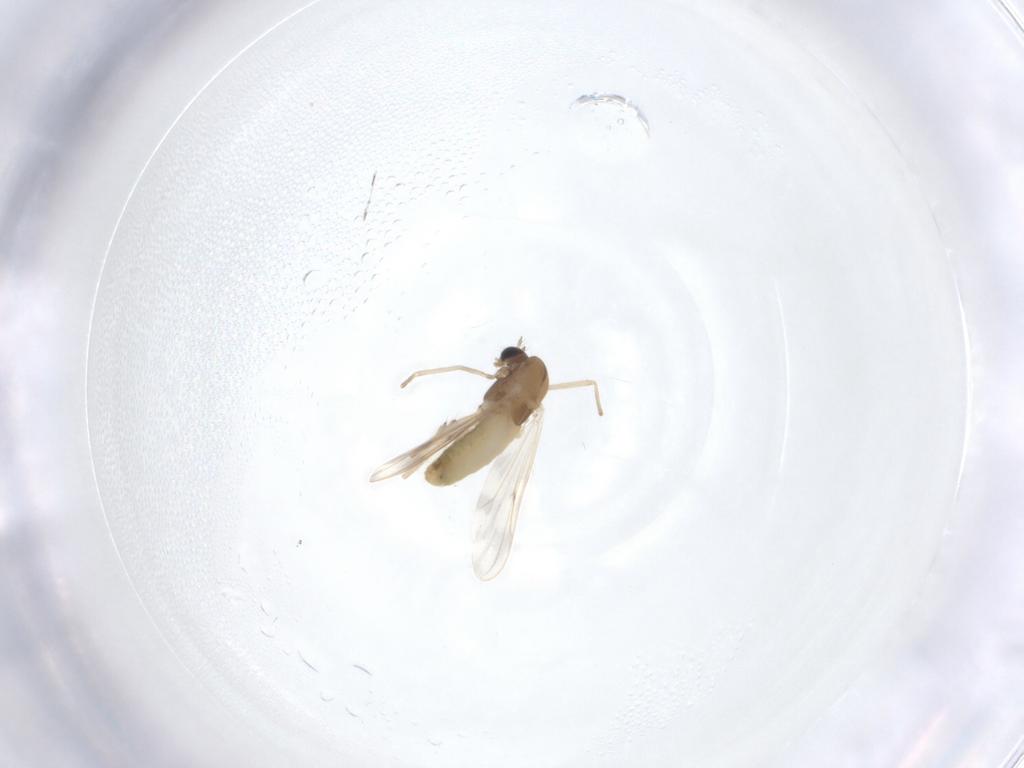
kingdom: Animalia
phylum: Arthropoda
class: Insecta
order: Diptera
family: Chironomidae
